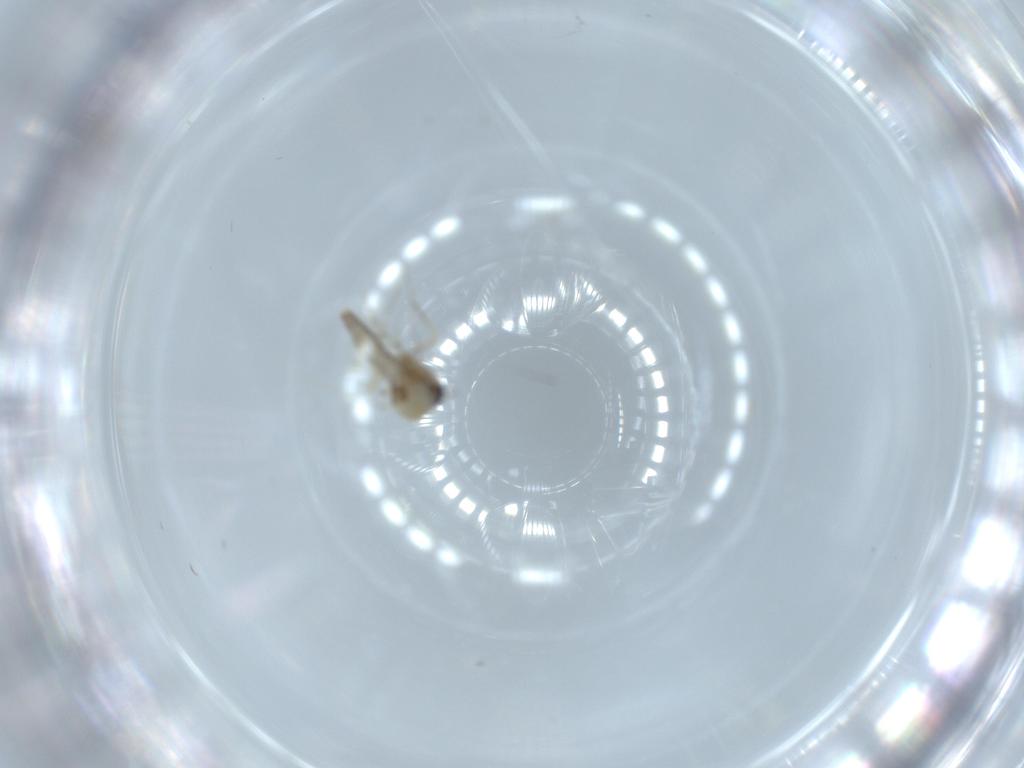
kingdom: Animalia
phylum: Arthropoda
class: Insecta
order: Diptera
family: Ceratopogonidae
